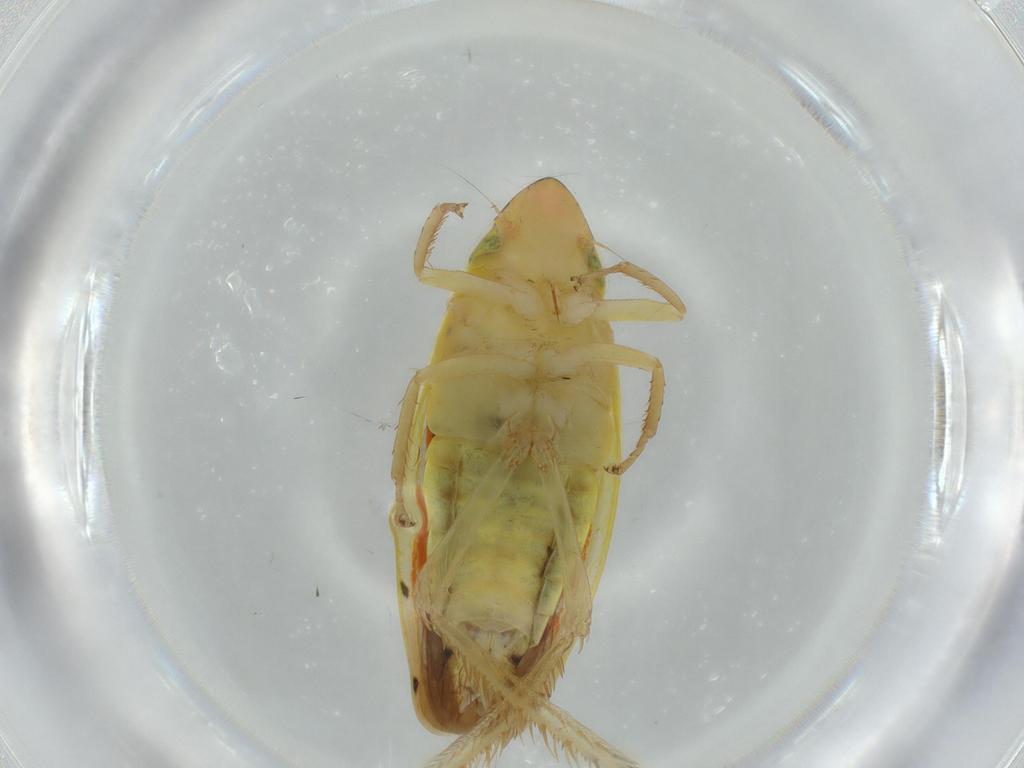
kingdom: Animalia
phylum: Arthropoda
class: Insecta
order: Hemiptera
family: Cicadellidae
